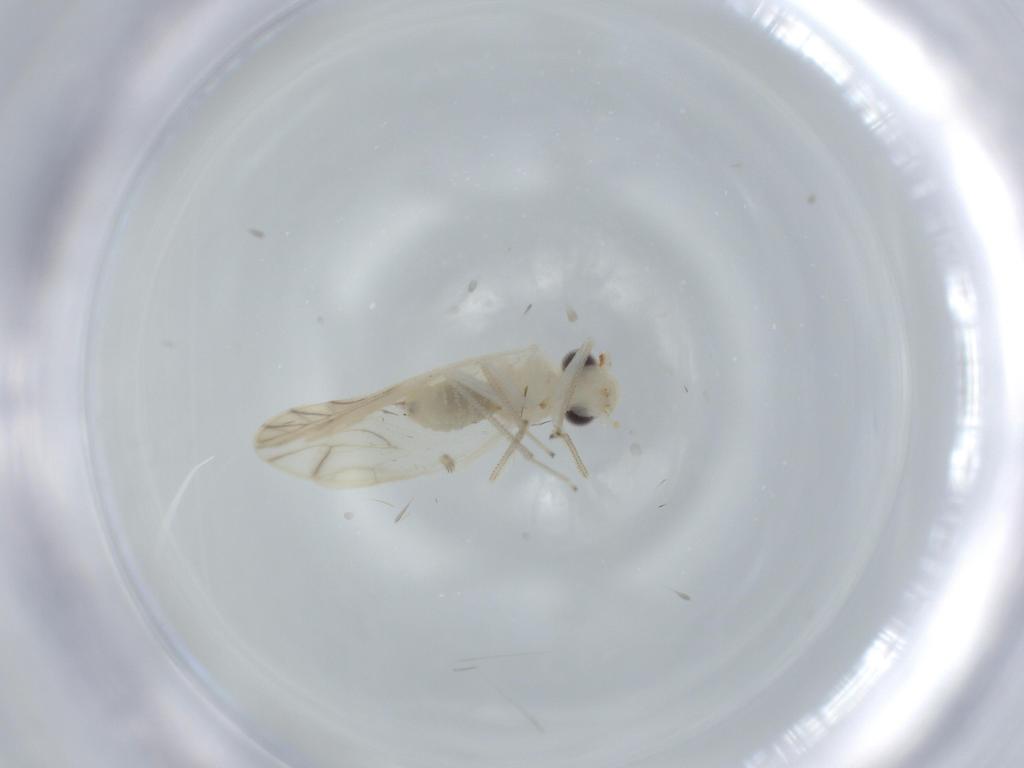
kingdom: Animalia
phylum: Arthropoda
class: Insecta
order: Psocodea
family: Caeciliusidae
